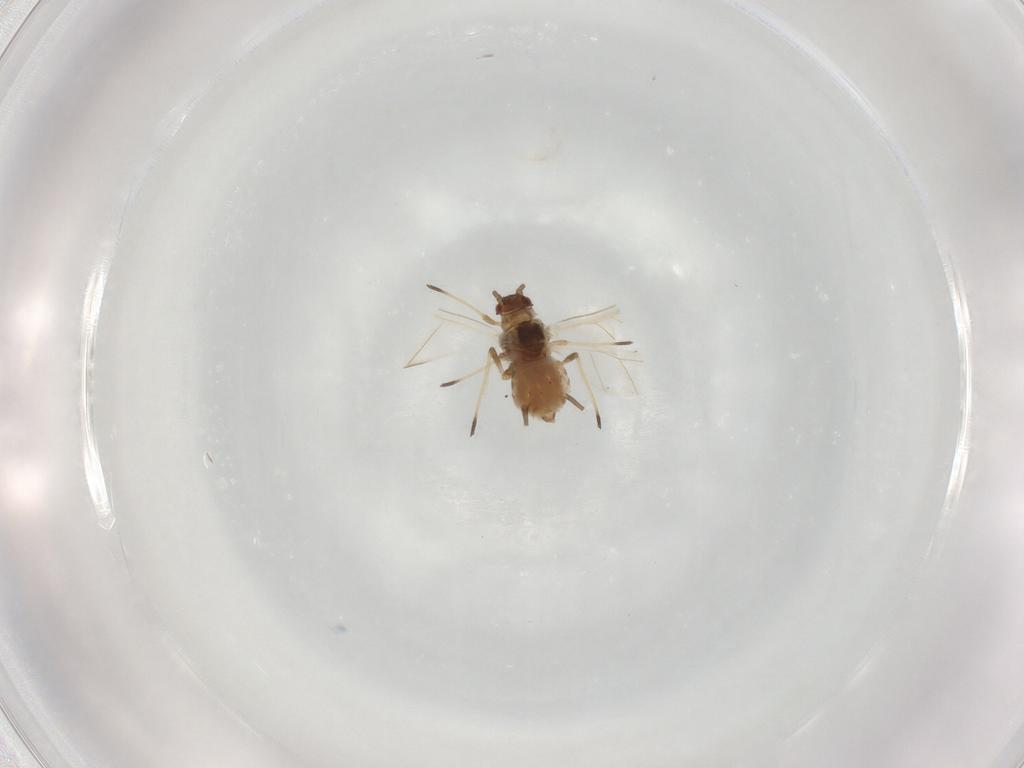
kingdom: Animalia
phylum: Arthropoda
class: Insecta
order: Hemiptera
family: Aphididae
